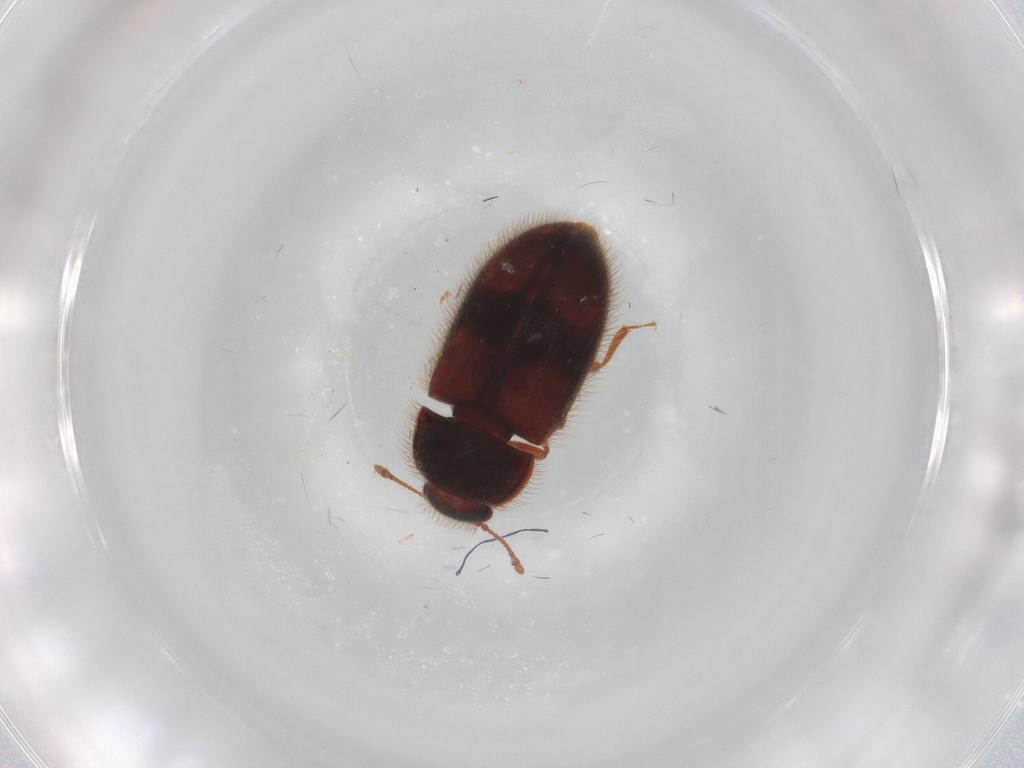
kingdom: Animalia
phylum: Arthropoda
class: Insecta
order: Coleoptera
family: Biphyllidae
